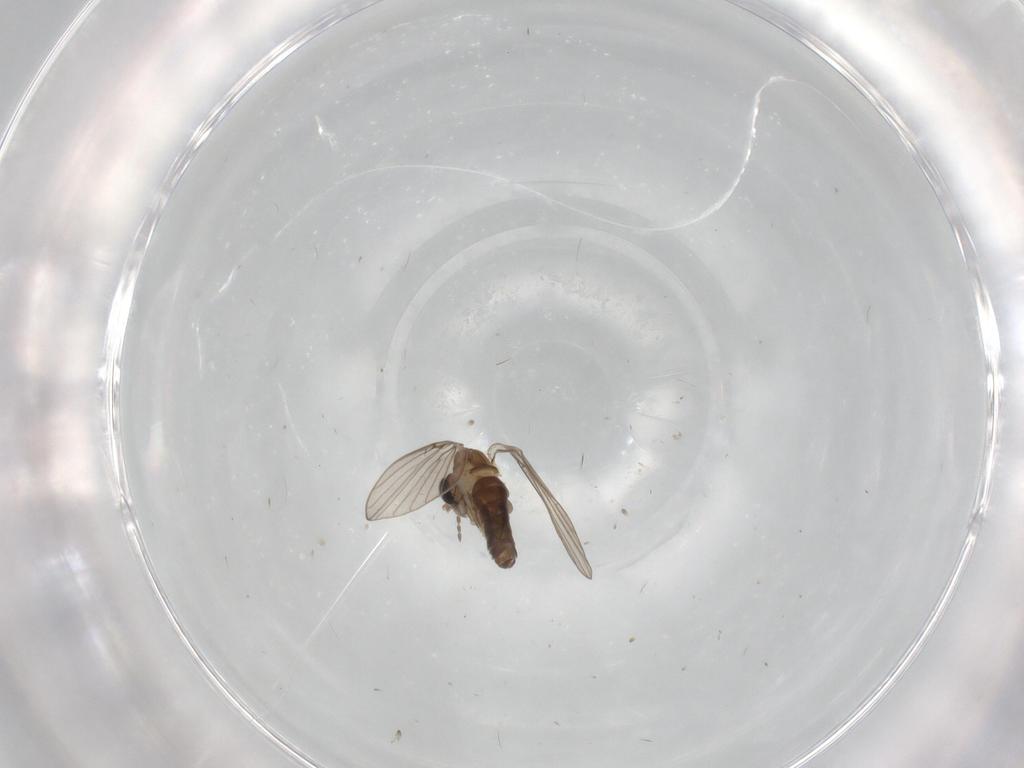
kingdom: Animalia
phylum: Arthropoda
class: Insecta
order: Diptera
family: Psychodidae
